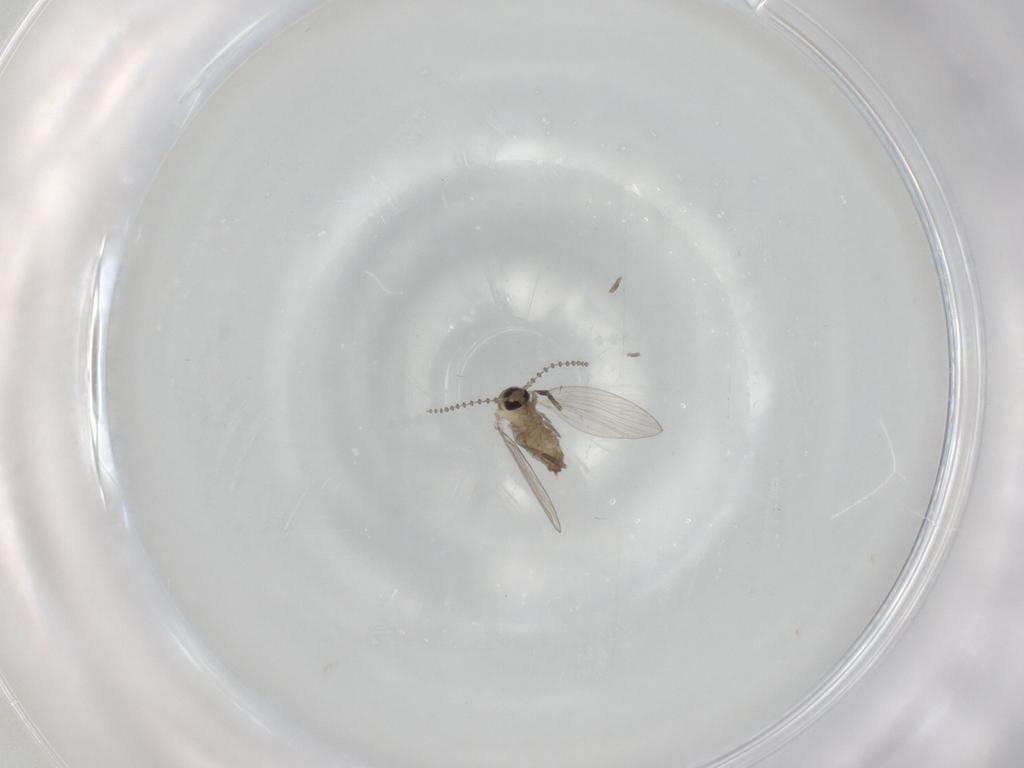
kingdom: Animalia
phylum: Arthropoda
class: Insecta
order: Diptera
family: Psychodidae
